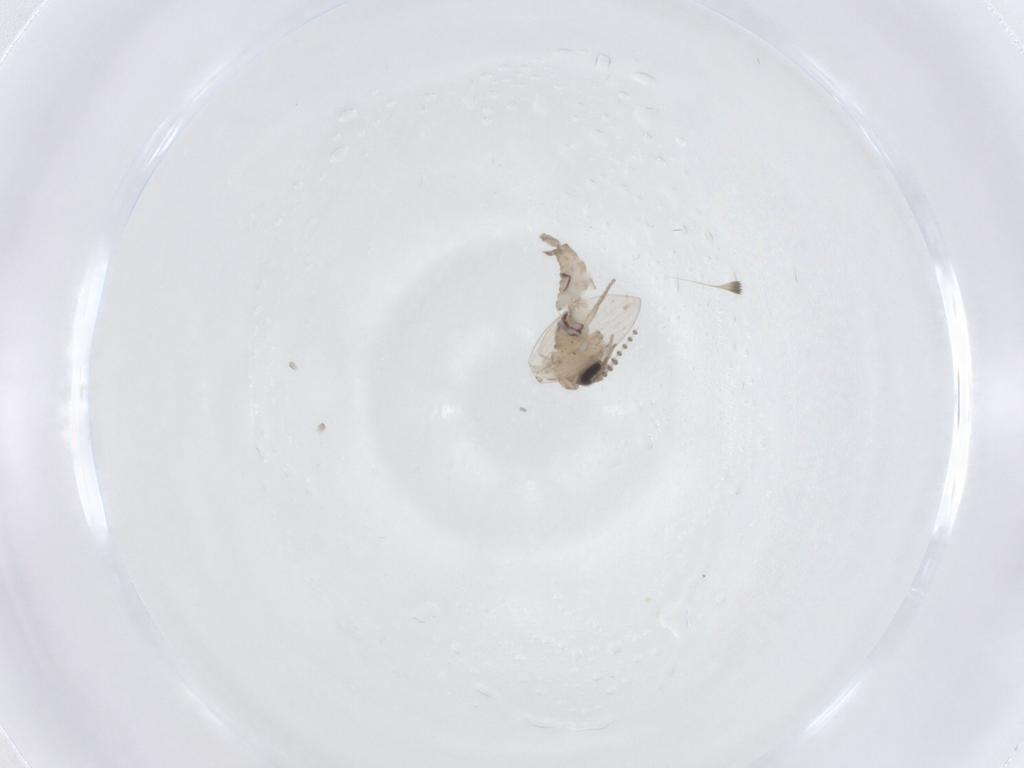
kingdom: Animalia
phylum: Arthropoda
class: Insecta
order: Diptera
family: Psychodidae
